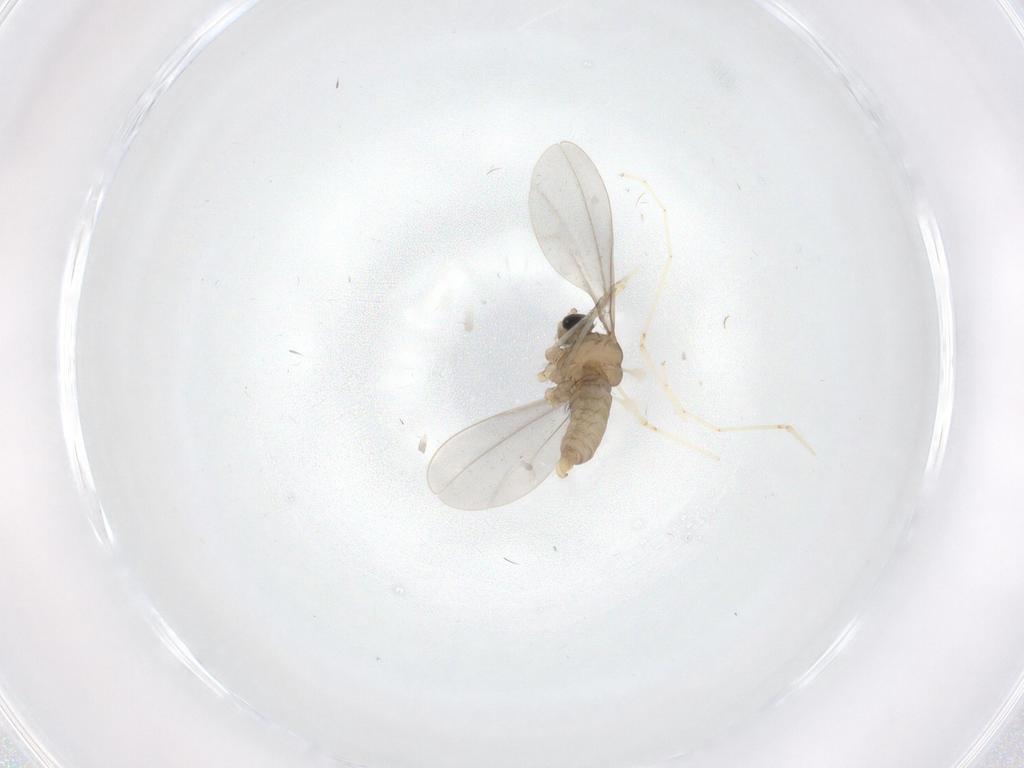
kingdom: Animalia
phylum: Arthropoda
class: Insecta
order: Diptera
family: Cecidomyiidae
